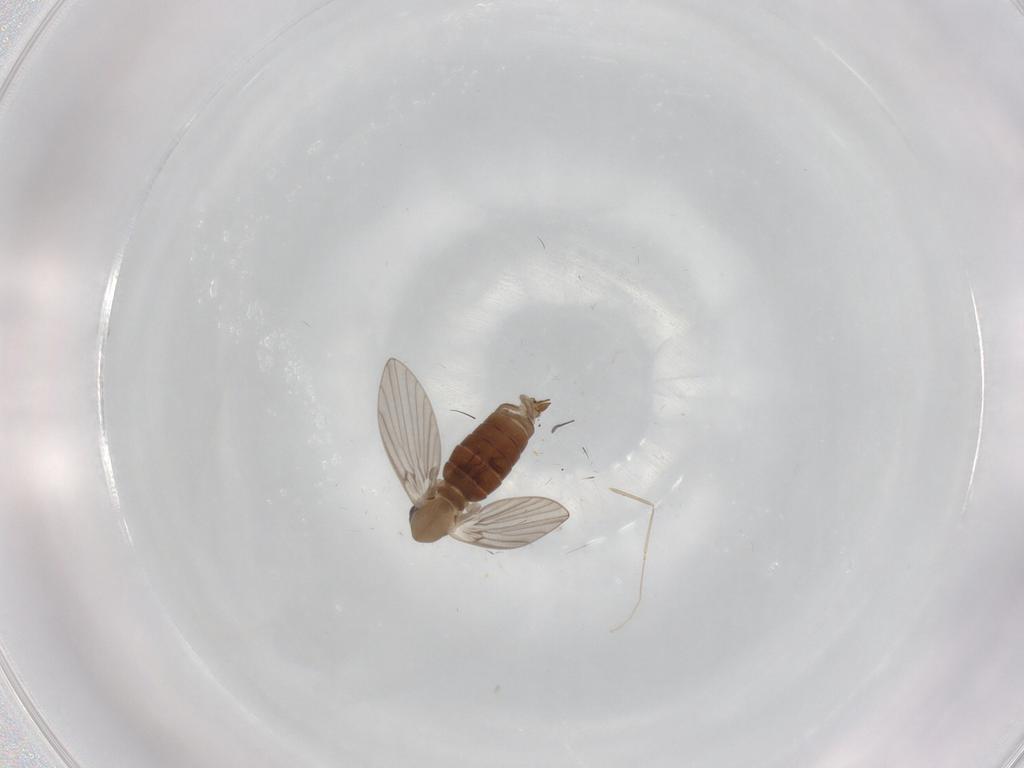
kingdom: Animalia
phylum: Arthropoda
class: Insecta
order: Diptera
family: Psychodidae
